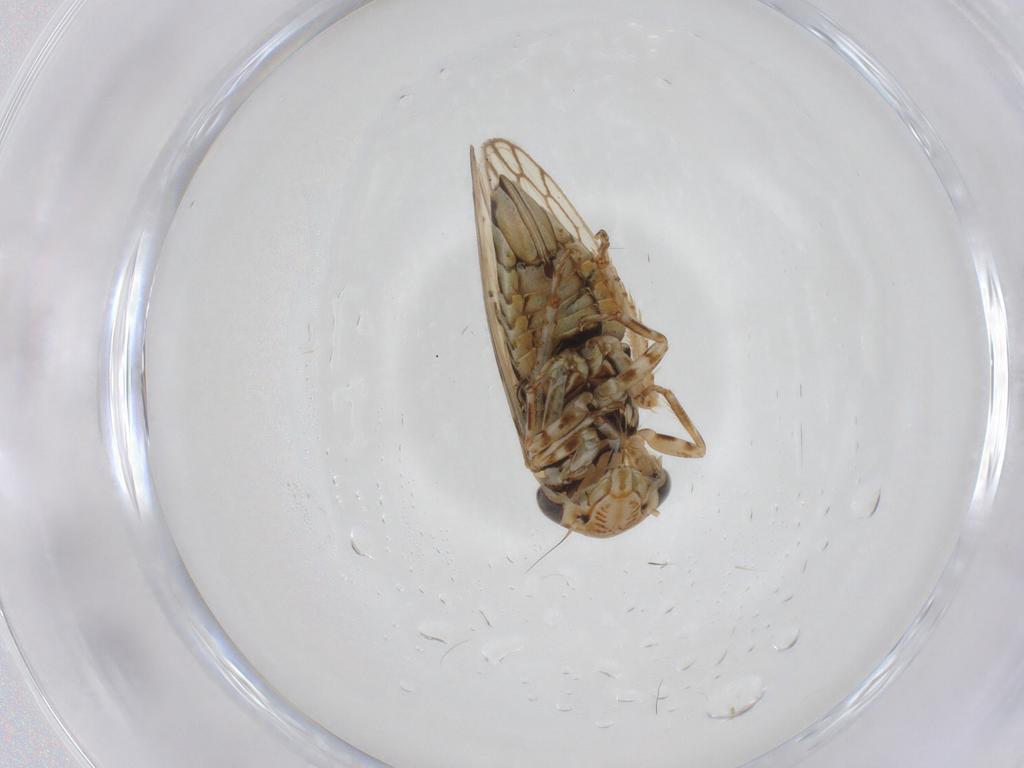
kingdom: Animalia
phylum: Arthropoda
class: Insecta
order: Hemiptera
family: Cicadellidae
